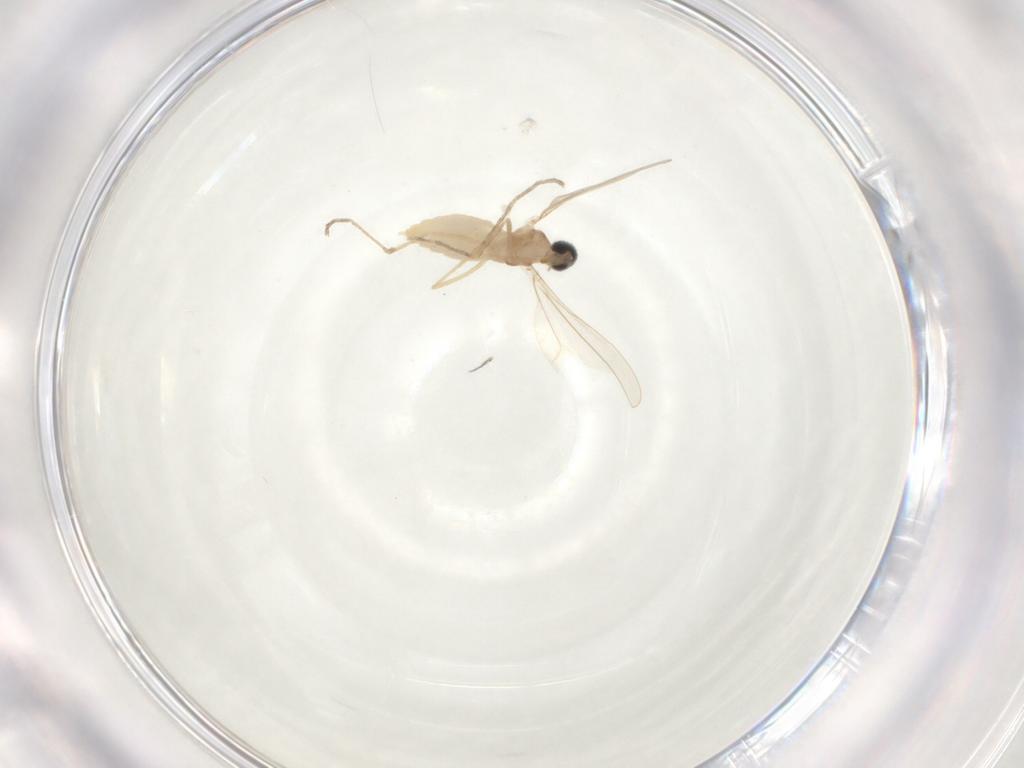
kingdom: Animalia
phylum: Arthropoda
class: Insecta
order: Diptera
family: Cecidomyiidae
